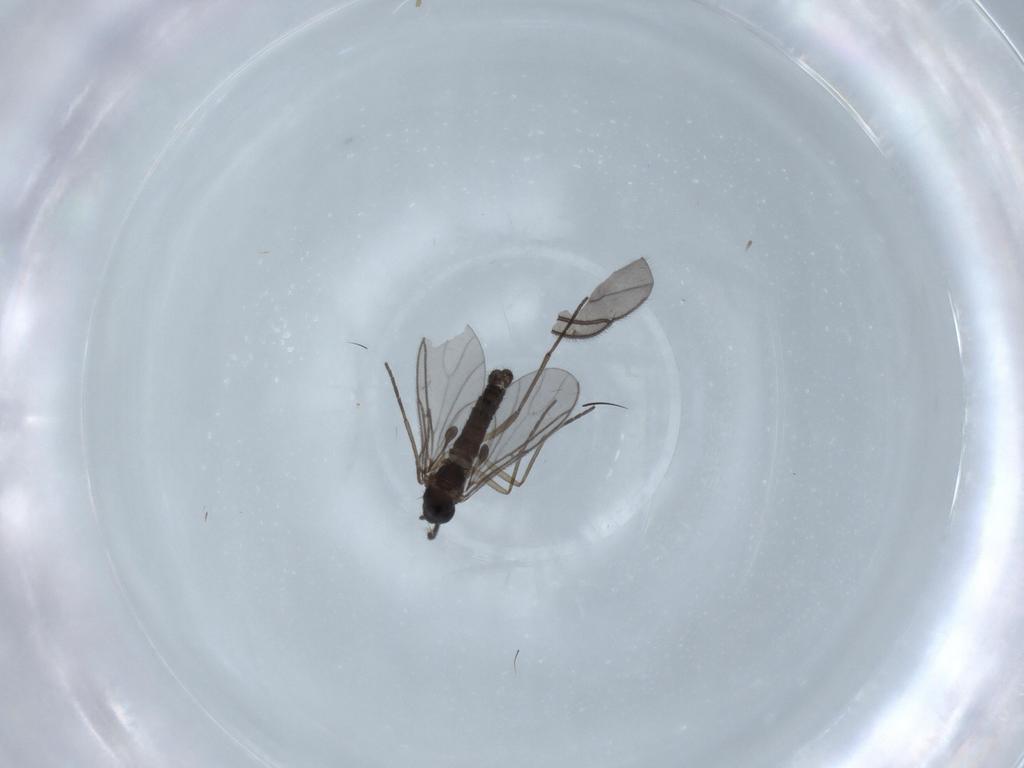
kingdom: Animalia
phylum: Arthropoda
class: Insecta
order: Diptera
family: Sciaridae
